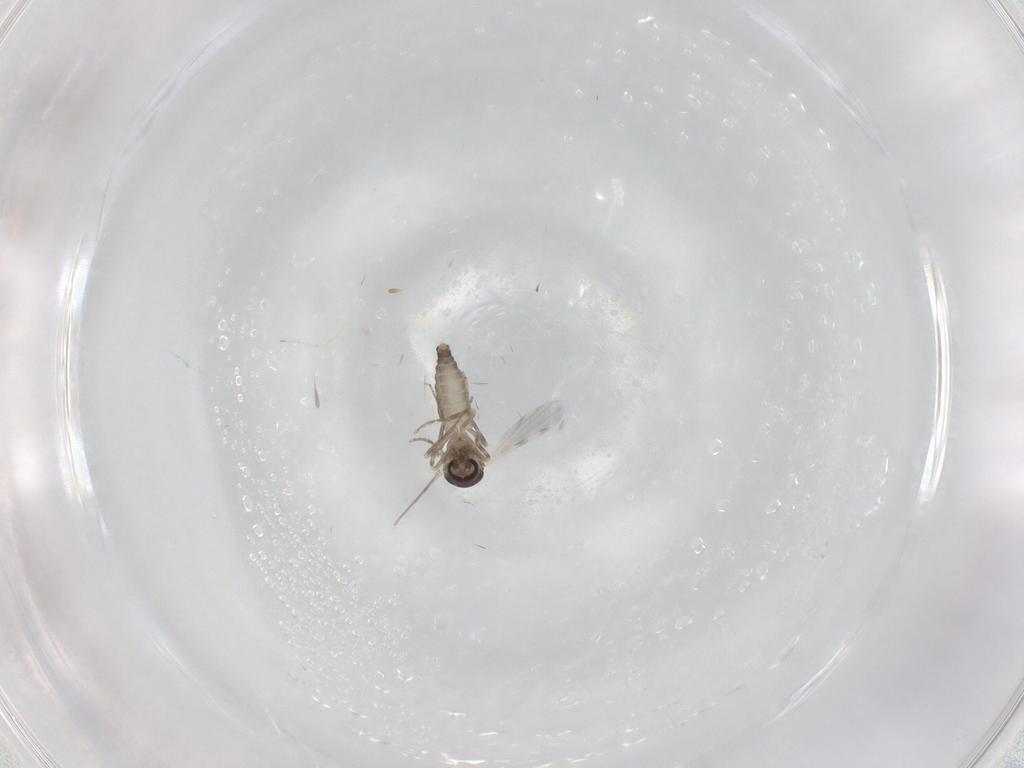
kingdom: Animalia
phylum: Arthropoda
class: Insecta
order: Diptera
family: Ceratopogonidae
